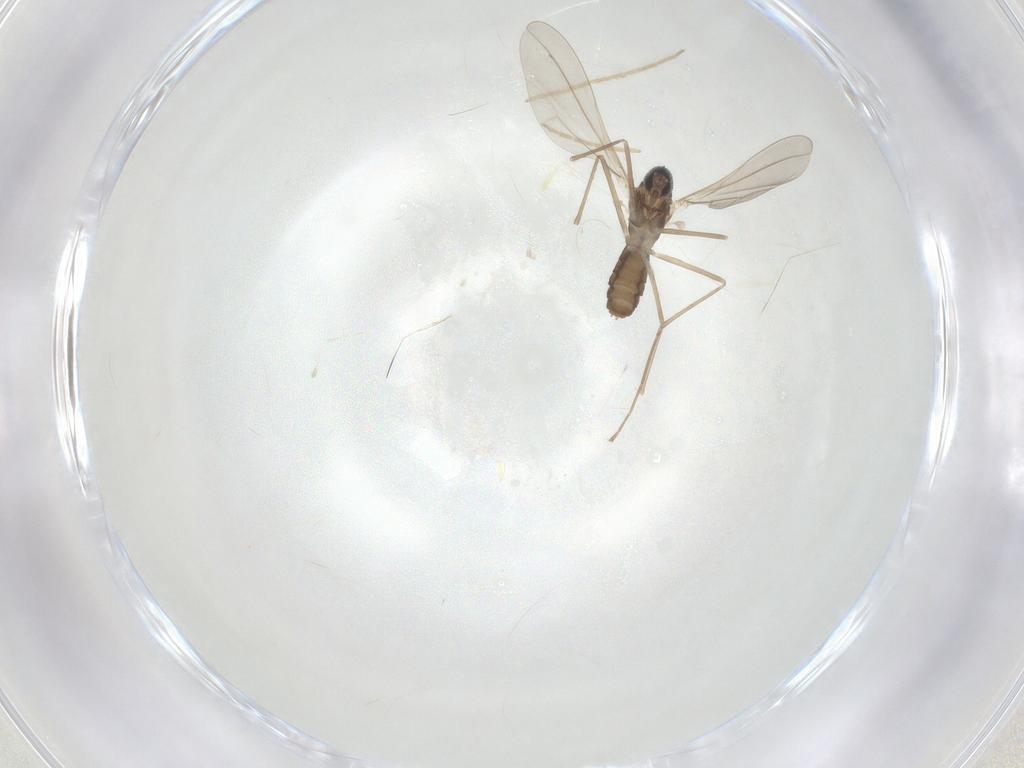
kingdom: Animalia
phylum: Arthropoda
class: Insecta
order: Diptera
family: Cecidomyiidae
